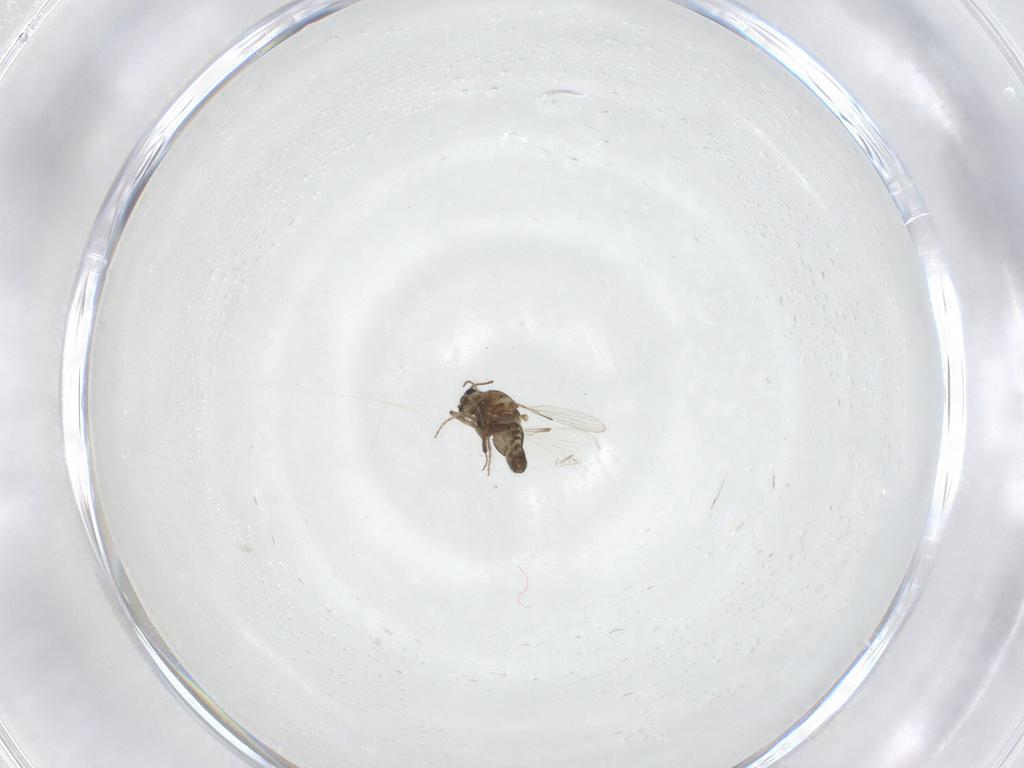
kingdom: Animalia
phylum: Arthropoda
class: Insecta
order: Diptera
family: Ceratopogonidae
